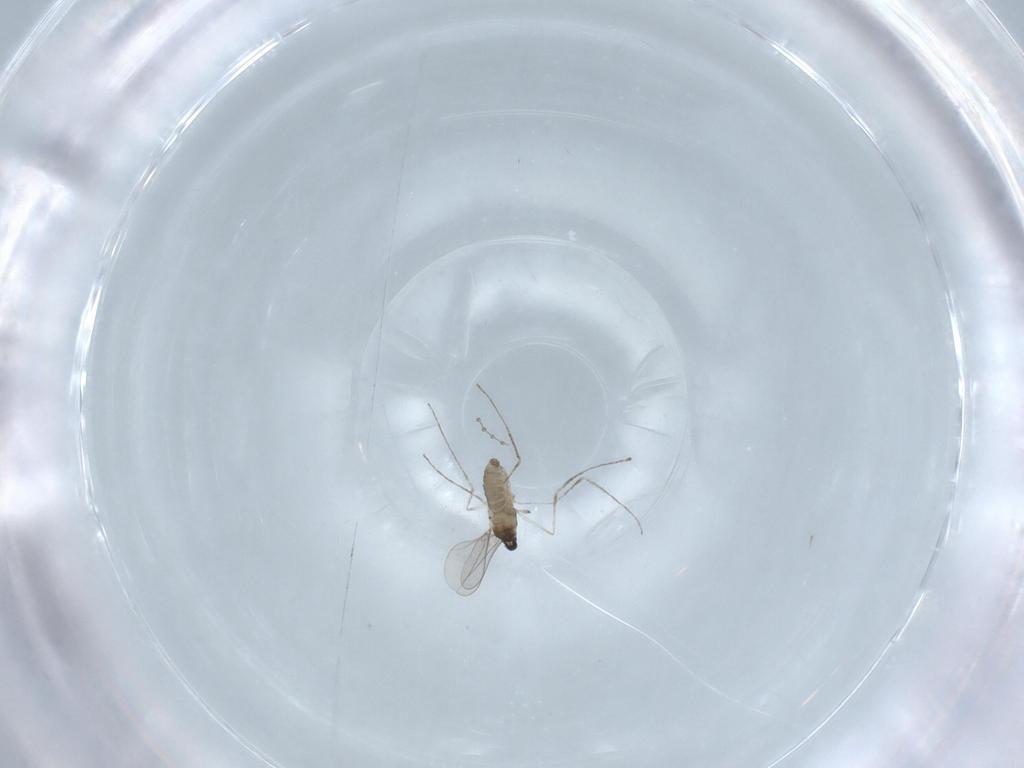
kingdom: Animalia
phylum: Arthropoda
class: Insecta
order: Diptera
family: Cecidomyiidae
